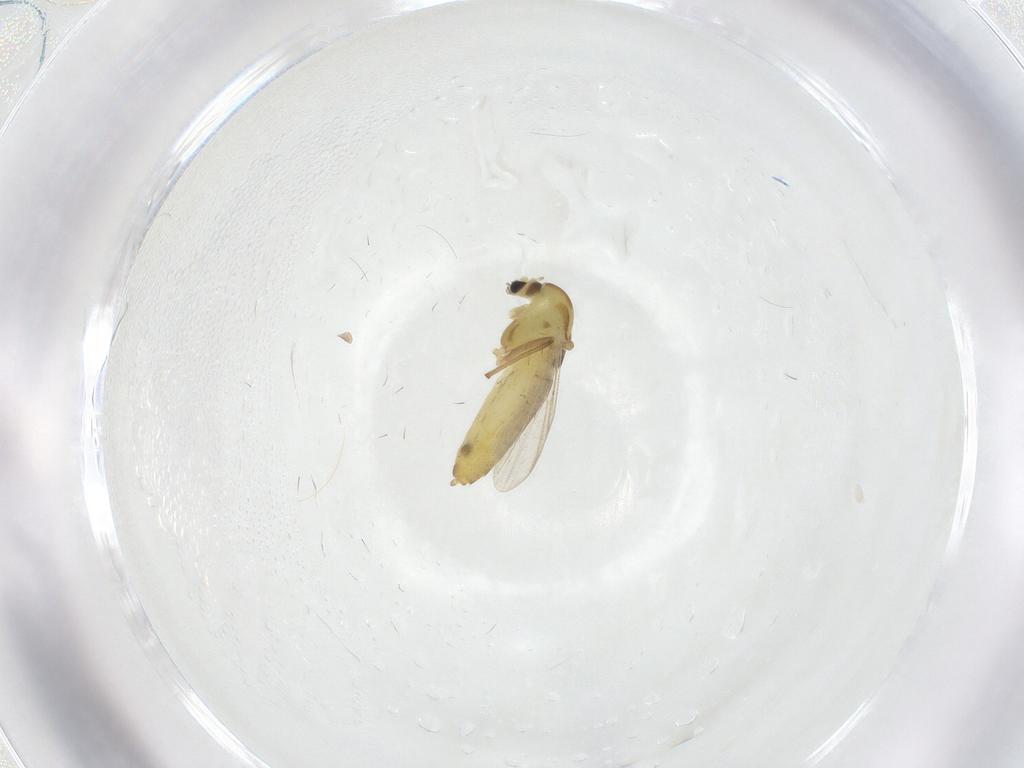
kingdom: Animalia
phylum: Arthropoda
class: Insecta
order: Diptera
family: Chironomidae
